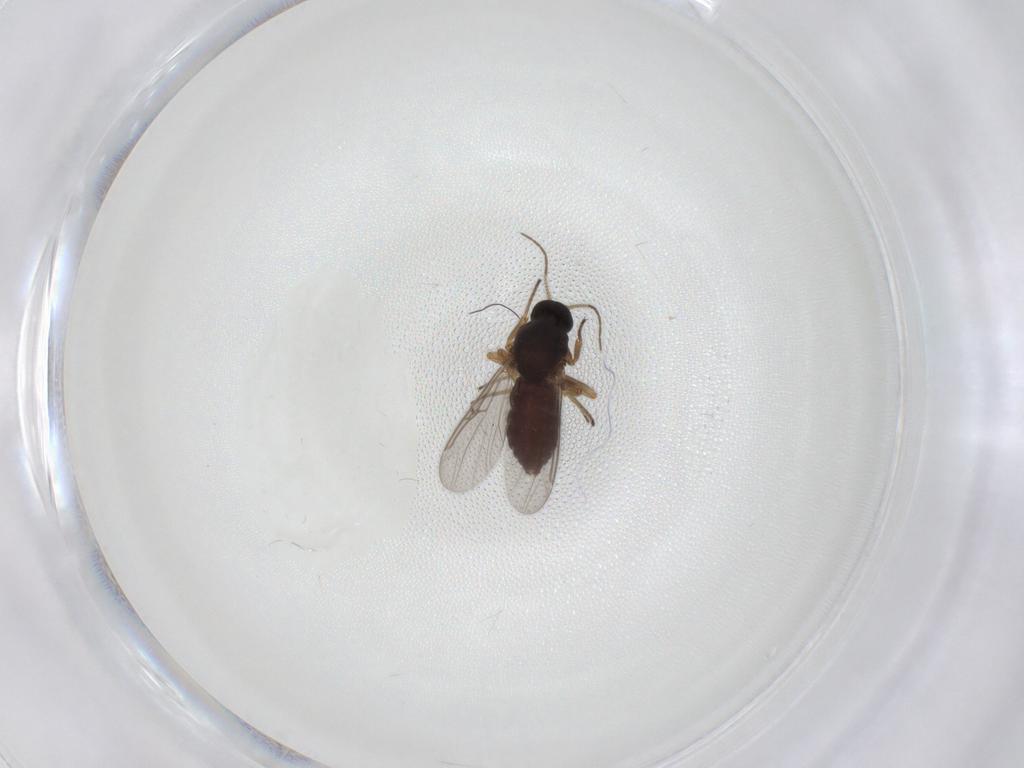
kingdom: Animalia
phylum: Arthropoda
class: Insecta
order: Diptera
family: Ceratopogonidae
